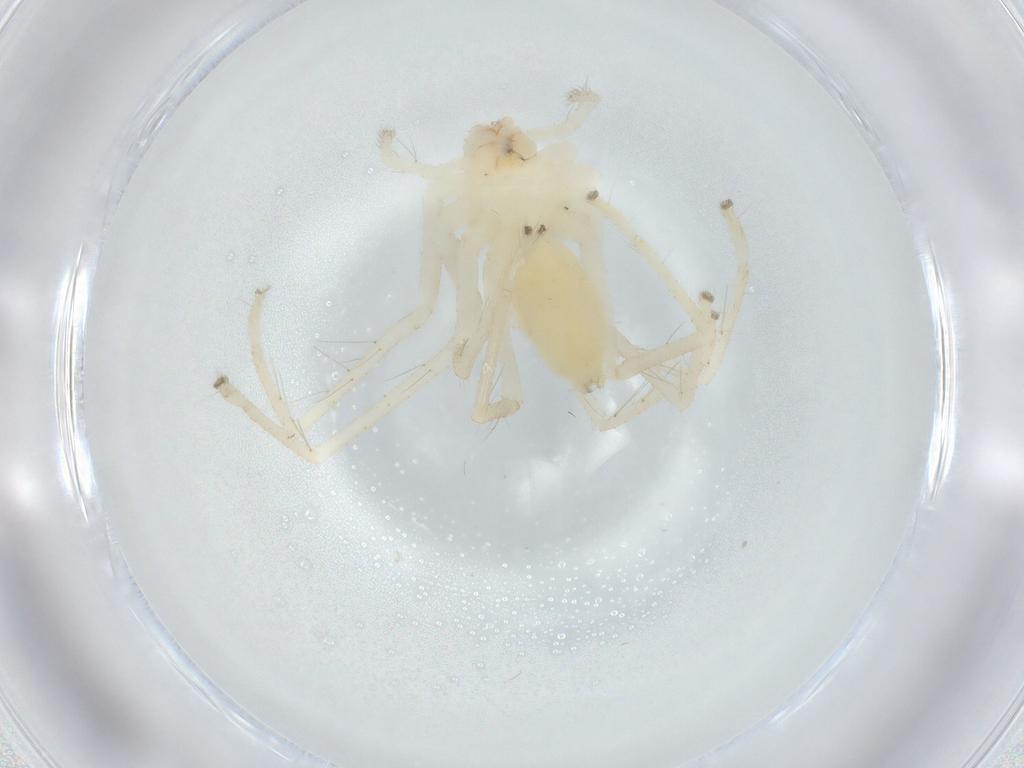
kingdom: Animalia
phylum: Arthropoda
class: Arachnida
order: Araneae
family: Sparassidae
